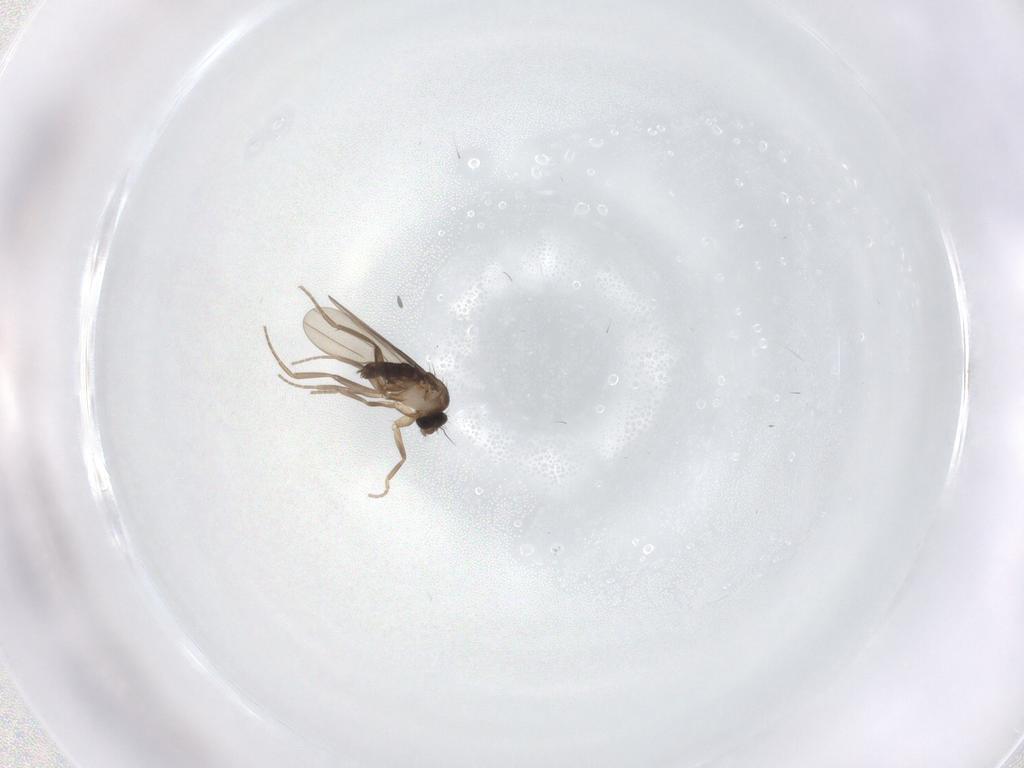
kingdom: Animalia
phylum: Arthropoda
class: Insecta
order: Diptera
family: Phoridae
